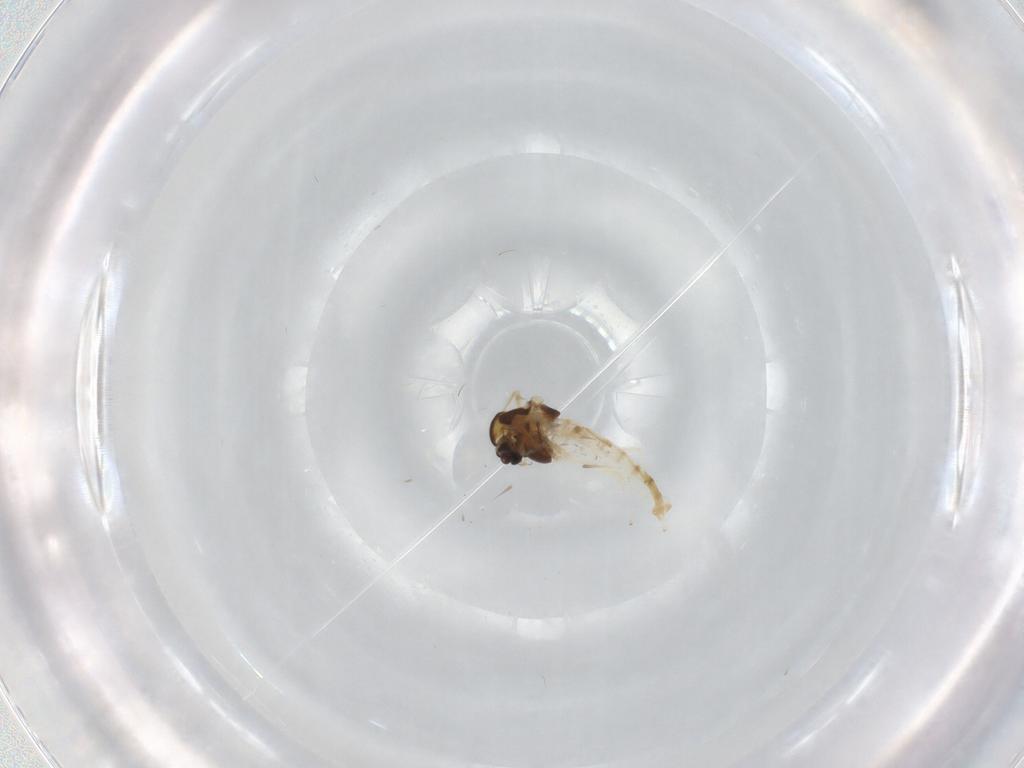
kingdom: Animalia
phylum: Arthropoda
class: Insecta
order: Diptera
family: Chironomidae
